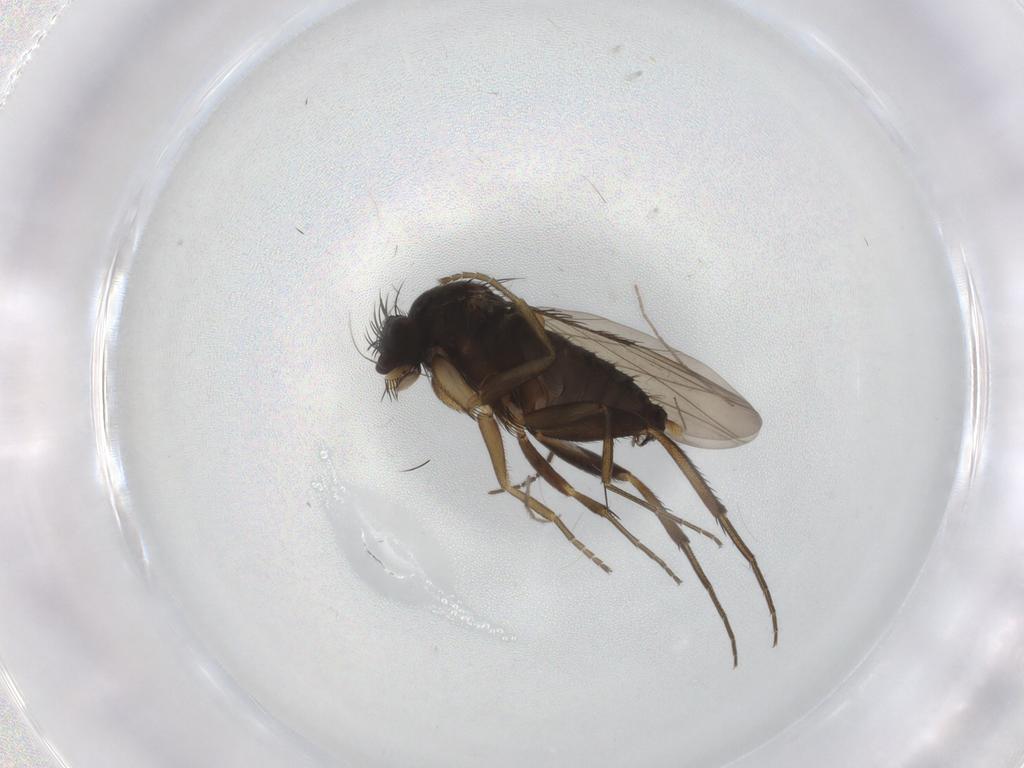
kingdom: Animalia
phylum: Arthropoda
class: Insecta
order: Diptera
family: Phoridae
